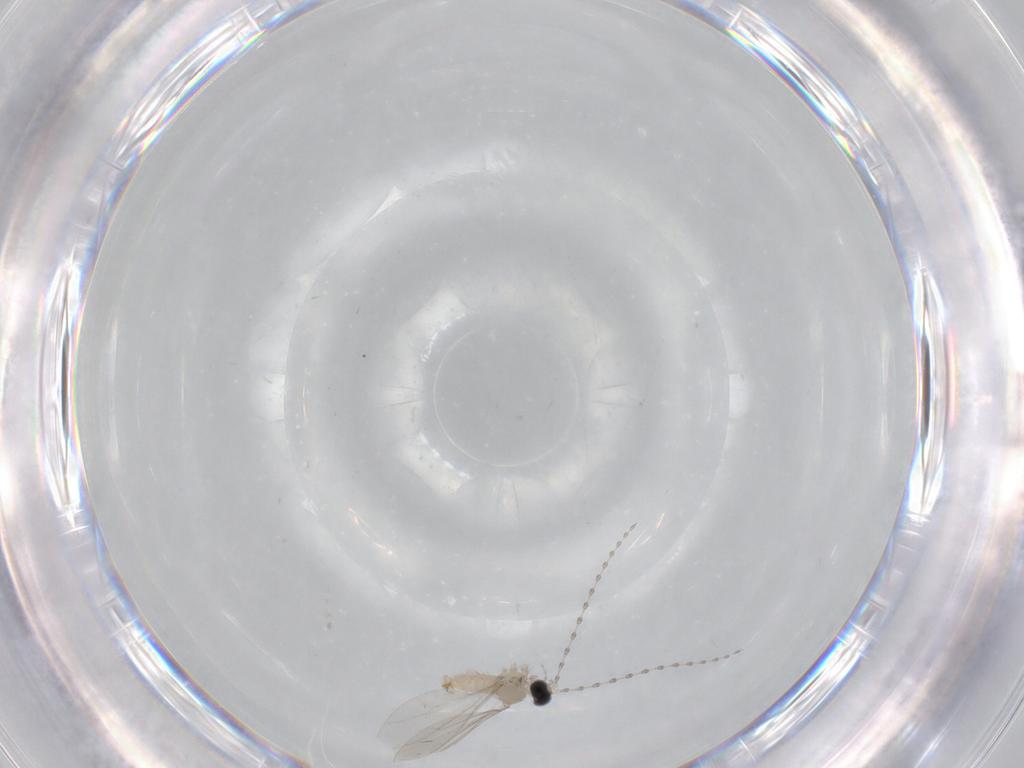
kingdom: Animalia
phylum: Arthropoda
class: Insecta
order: Diptera
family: Cecidomyiidae
